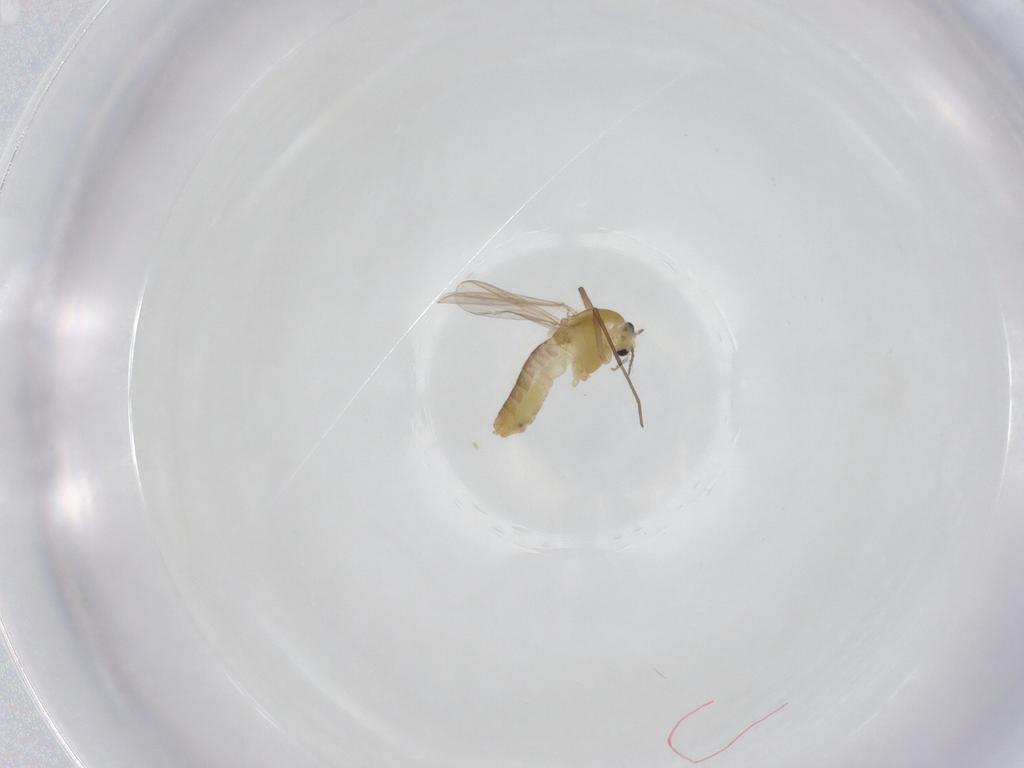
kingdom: Animalia
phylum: Arthropoda
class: Insecta
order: Diptera
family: Chironomidae
